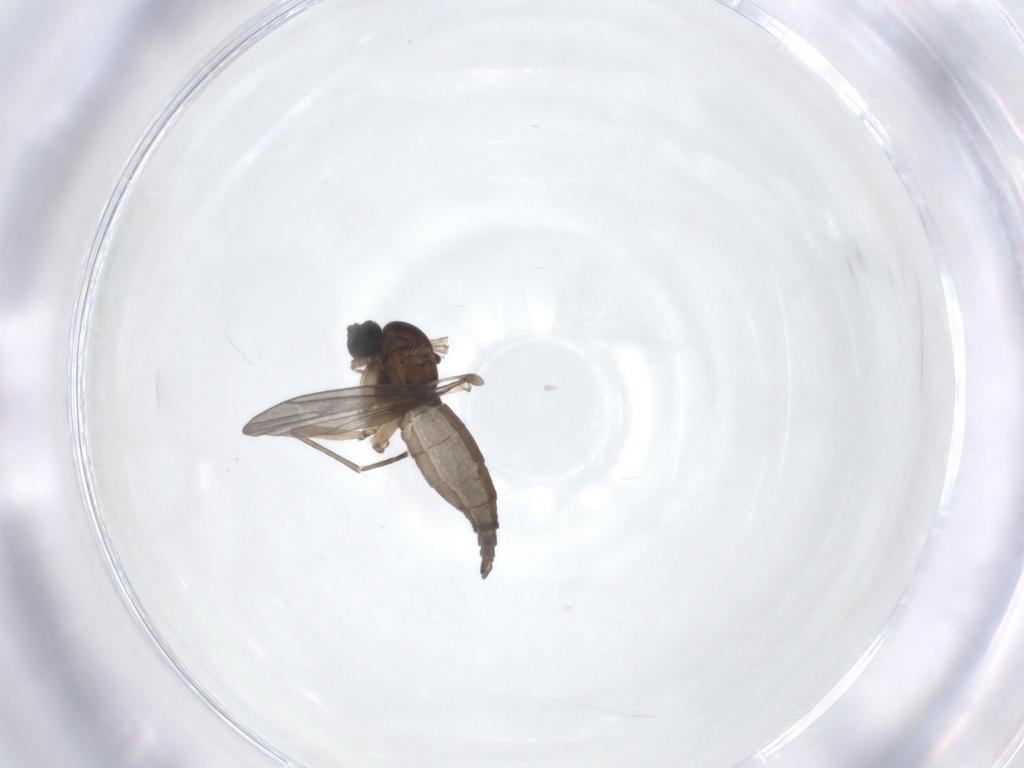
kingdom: Animalia
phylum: Arthropoda
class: Insecta
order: Diptera
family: Sciaridae
